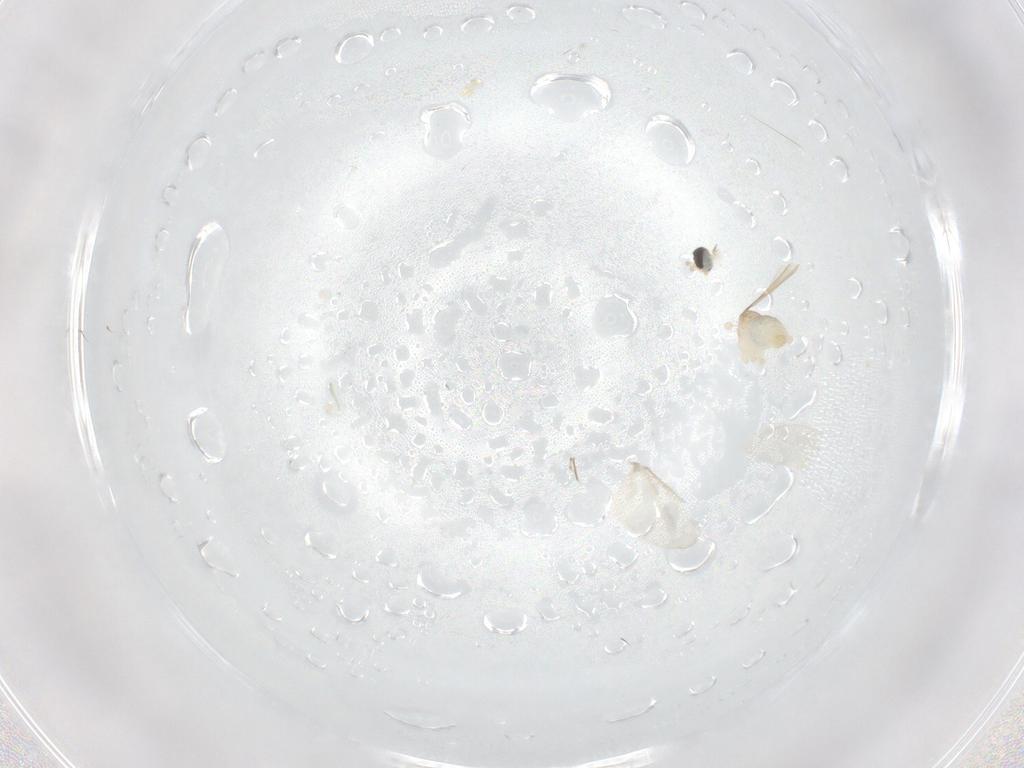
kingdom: Animalia
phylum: Arthropoda
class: Insecta
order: Diptera
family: Cecidomyiidae
